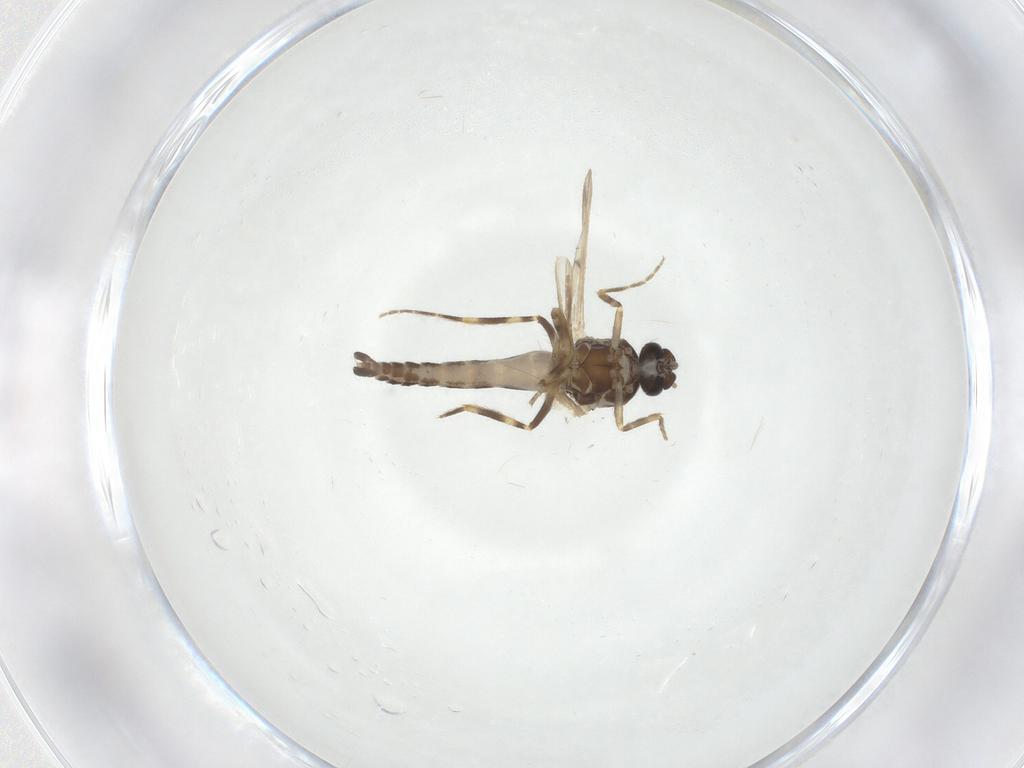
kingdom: Animalia
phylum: Arthropoda
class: Insecta
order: Diptera
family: Ceratopogonidae
